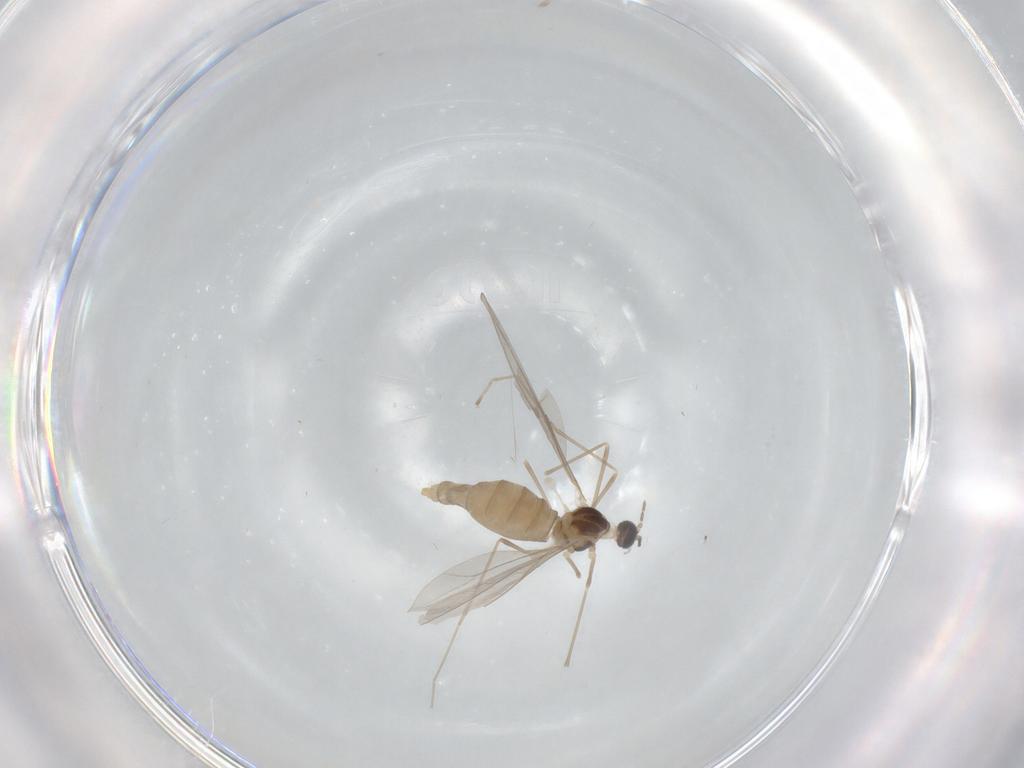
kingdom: Animalia
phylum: Arthropoda
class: Insecta
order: Diptera
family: Cecidomyiidae
